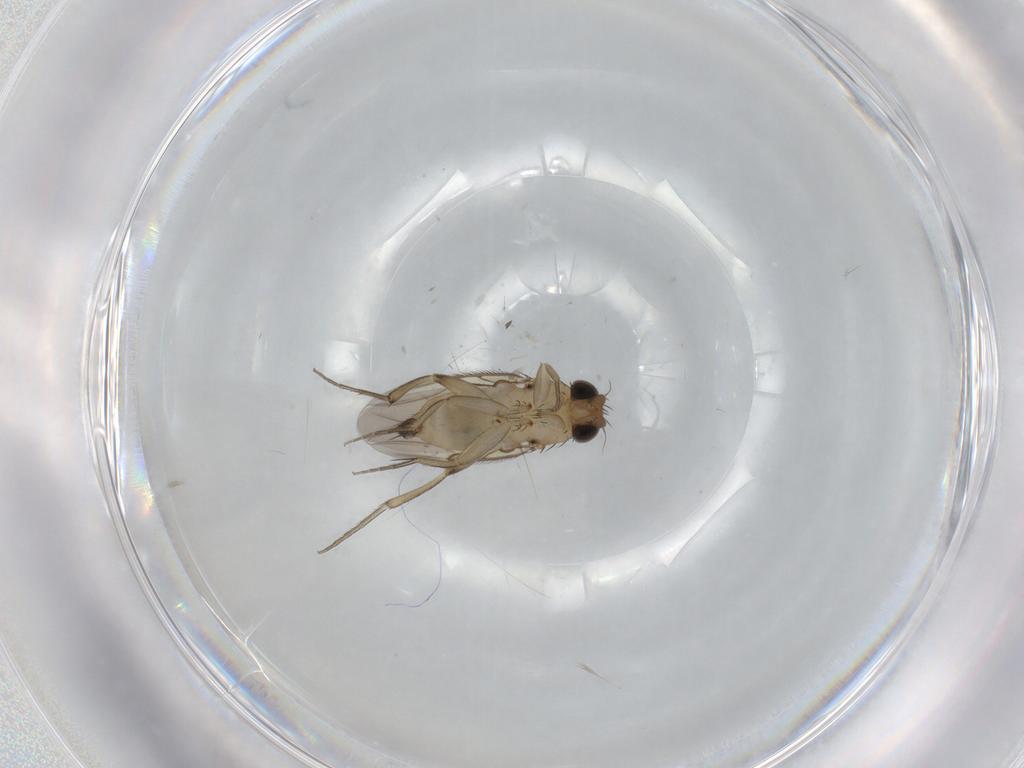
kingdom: Animalia
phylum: Arthropoda
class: Insecta
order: Diptera
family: Phoridae
